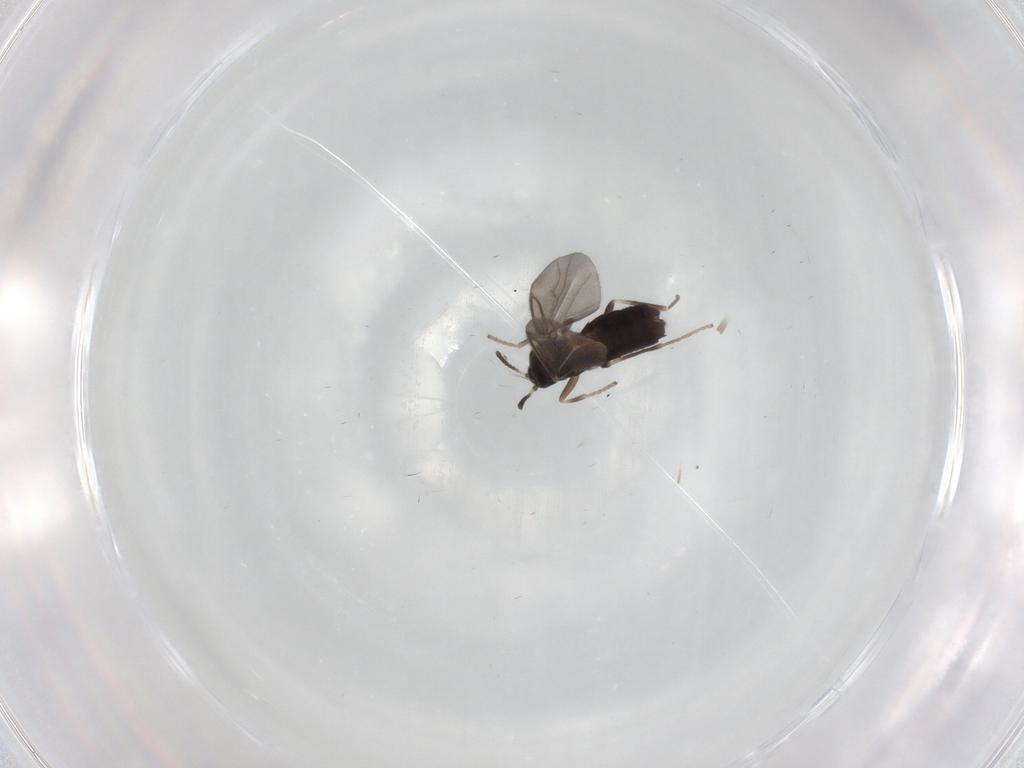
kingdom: Animalia
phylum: Arthropoda
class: Insecta
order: Diptera
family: Scatopsidae
